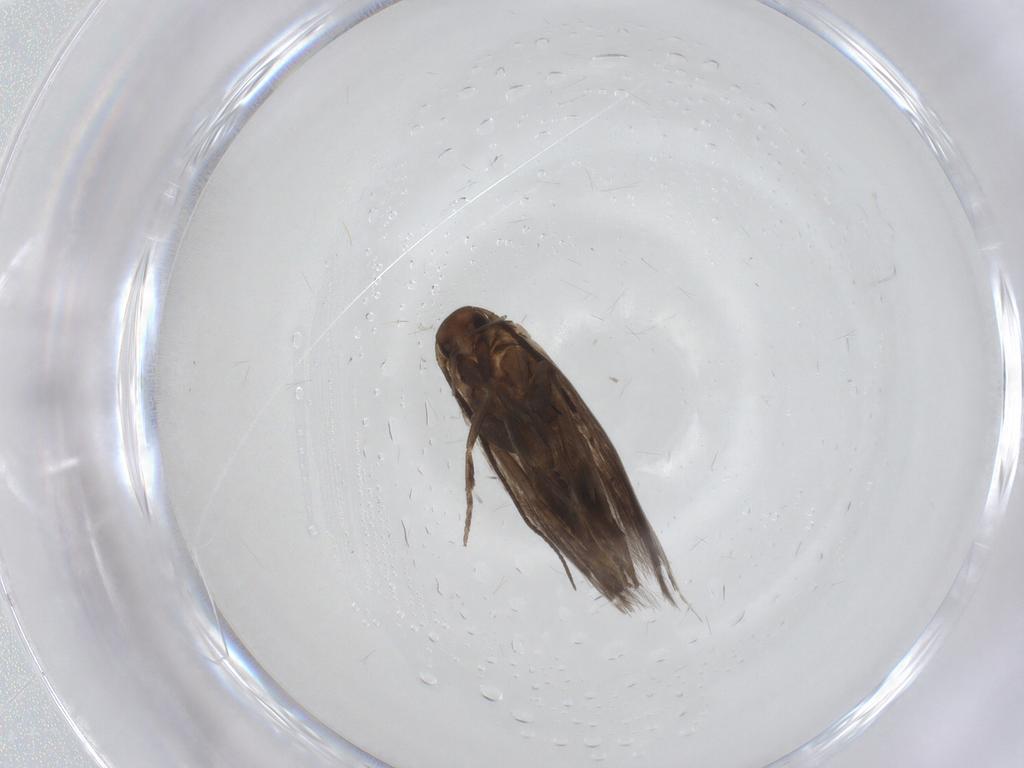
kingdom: Animalia
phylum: Arthropoda
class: Insecta
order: Lepidoptera
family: Elachistidae
